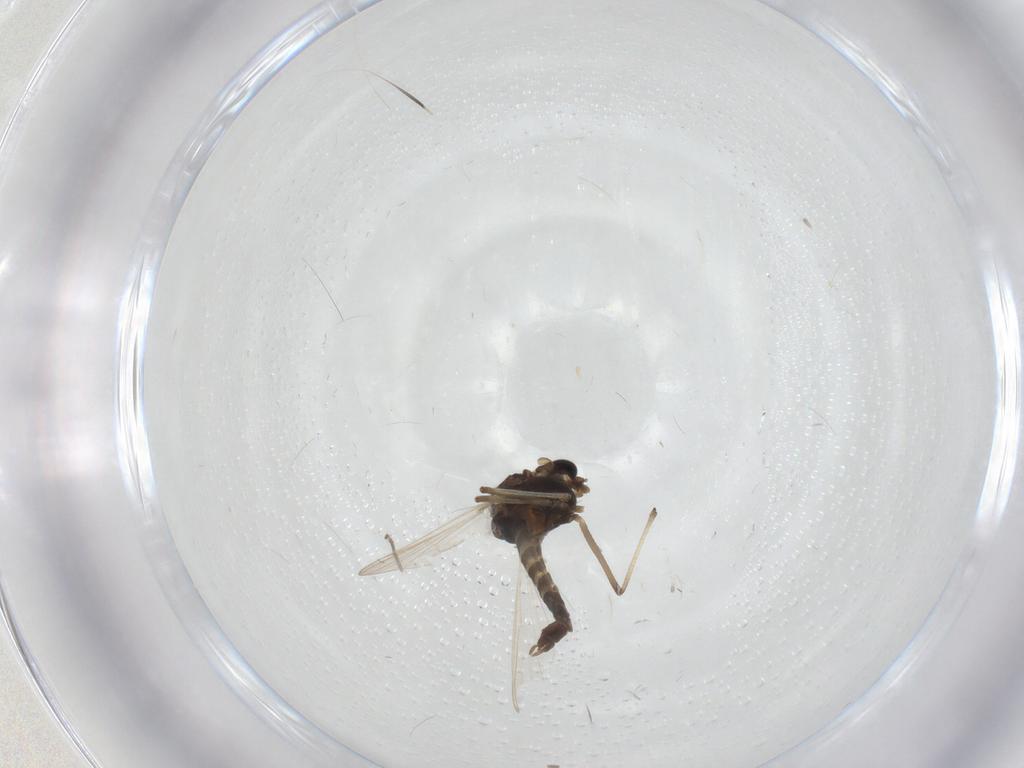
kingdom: Animalia
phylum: Arthropoda
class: Insecta
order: Diptera
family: Chironomidae
